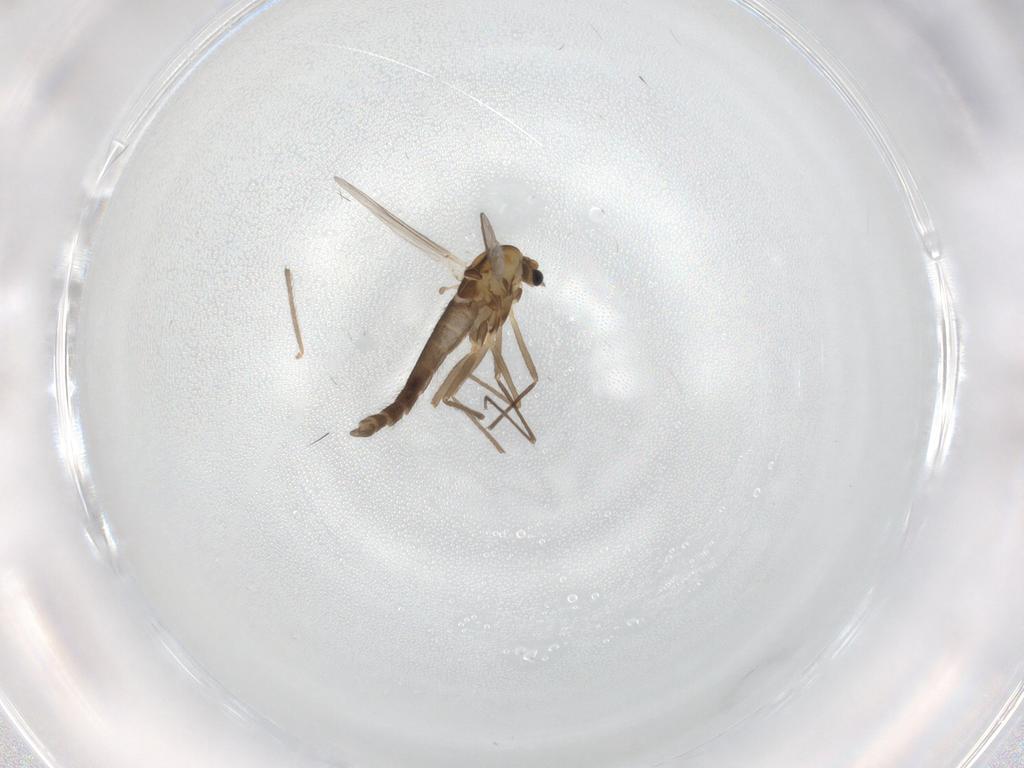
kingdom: Animalia
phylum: Arthropoda
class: Insecta
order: Diptera
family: Chironomidae
